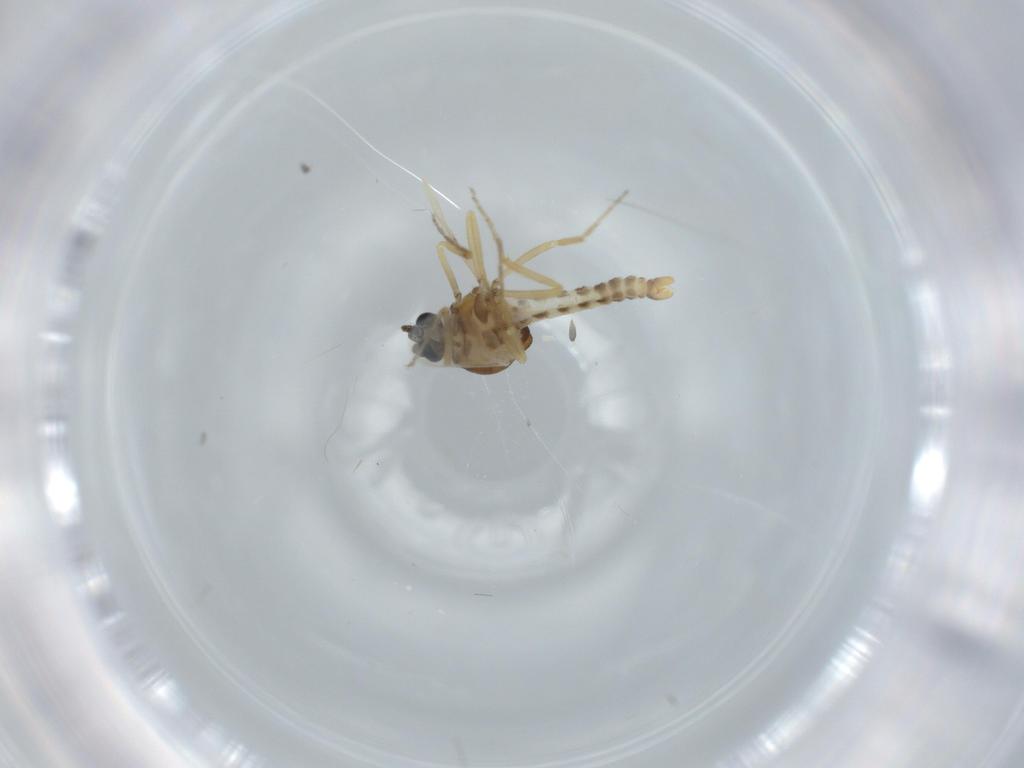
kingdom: Animalia
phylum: Arthropoda
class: Insecta
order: Diptera
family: Ceratopogonidae
